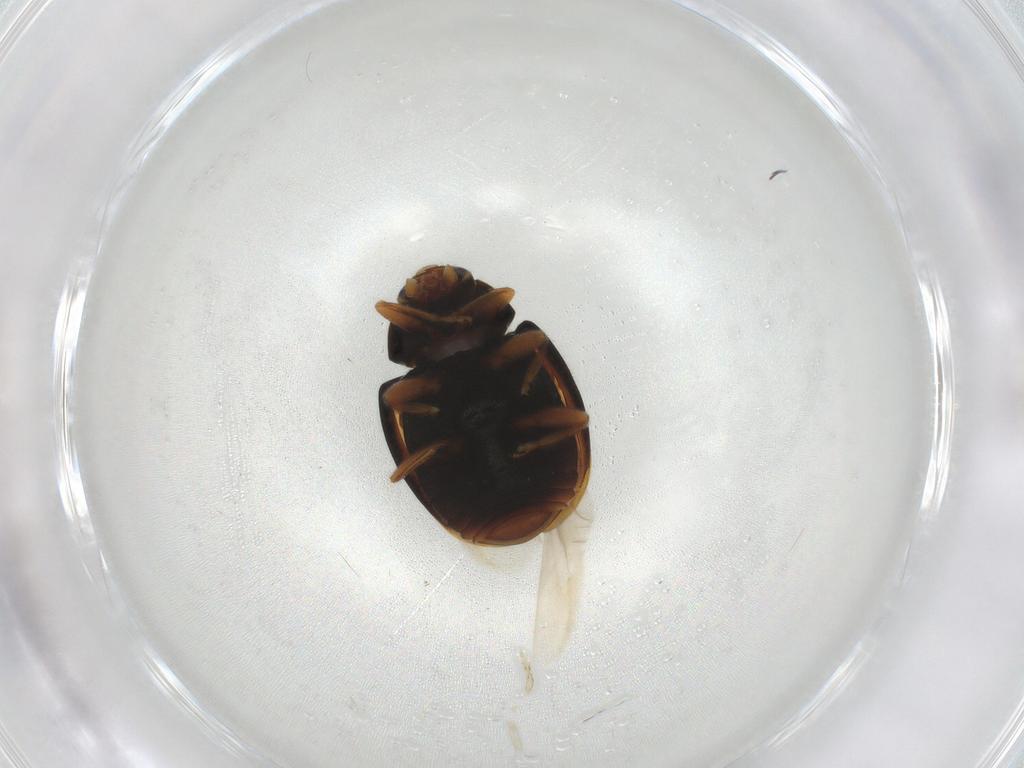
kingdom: Animalia
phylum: Arthropoda
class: Insecta
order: Coleoptera
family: Coccinellidae
